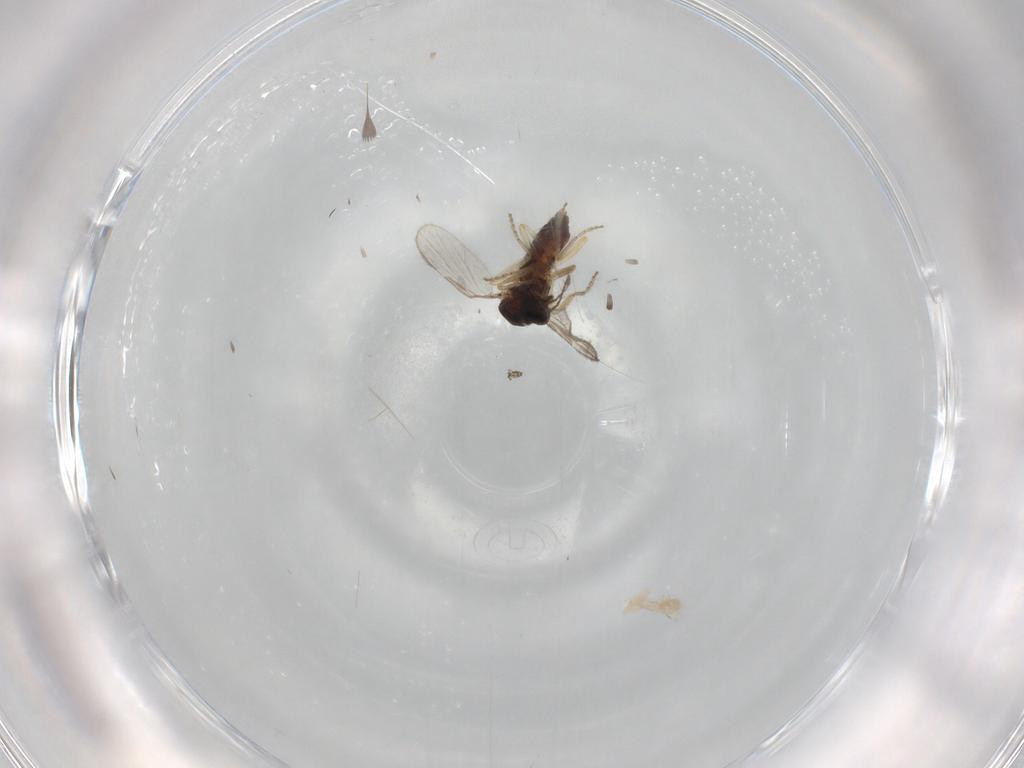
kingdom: Animalia
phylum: Arthropoda
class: Insecta
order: Diptera
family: Ceratopogonidae
